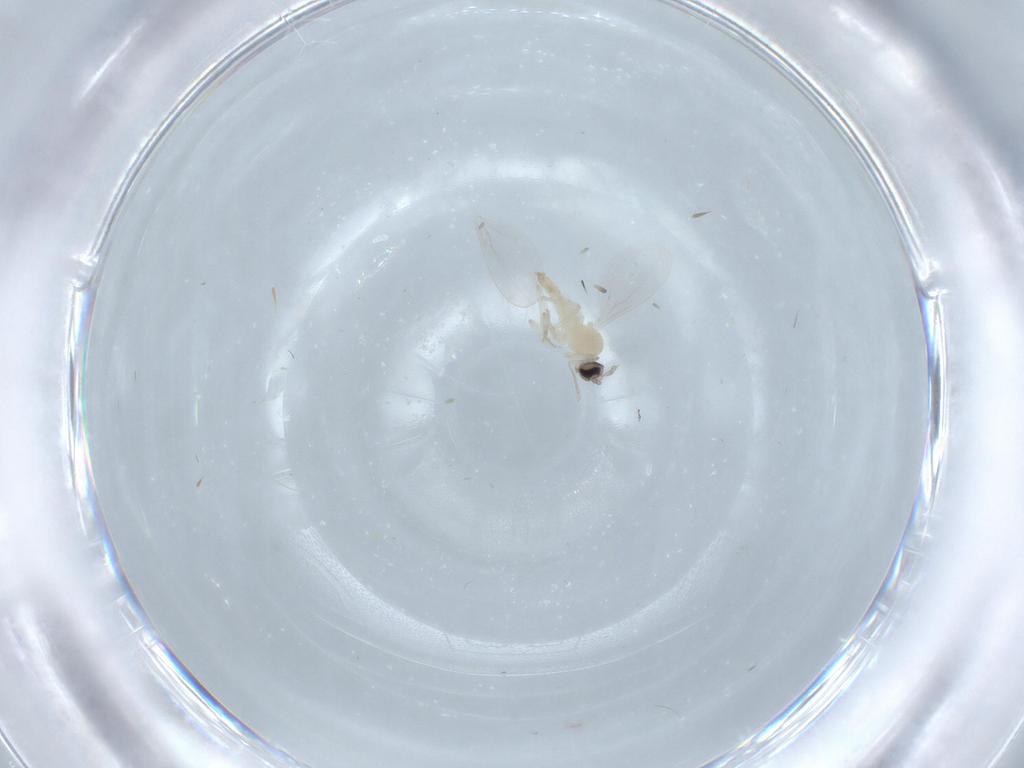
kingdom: Animalia
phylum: Arthropoda
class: Insecta
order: Diptera
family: Cecidomyiidae
